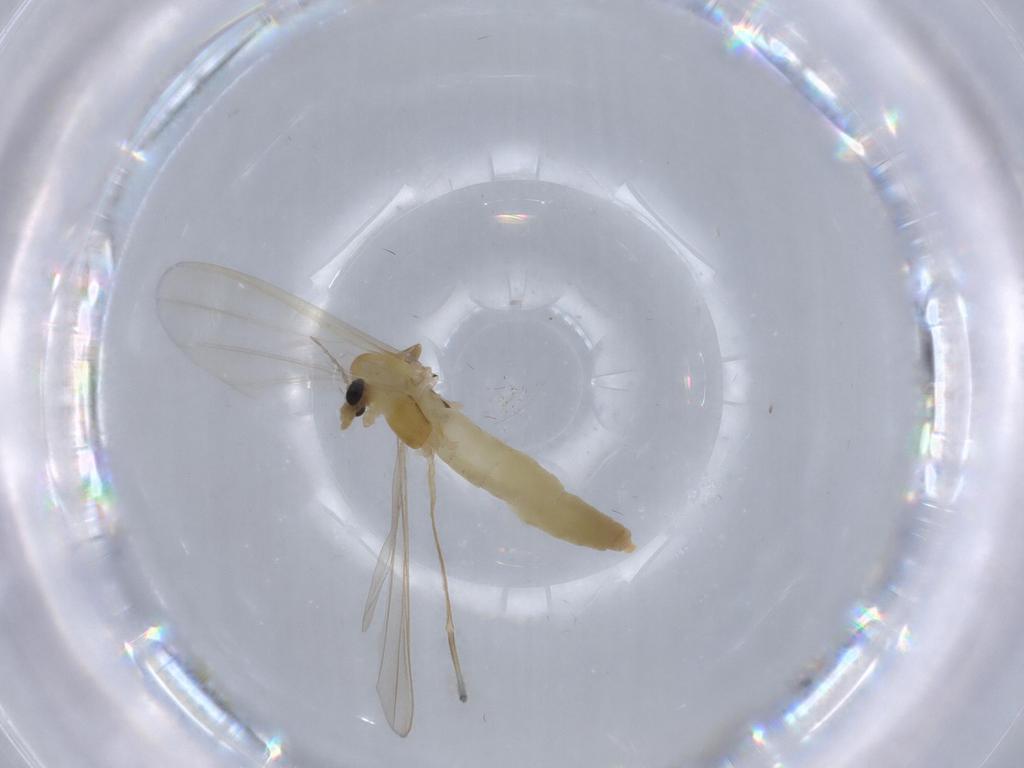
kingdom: Animalia
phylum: Arthropoda
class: Insecta
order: Diptera
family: Chironomidae
